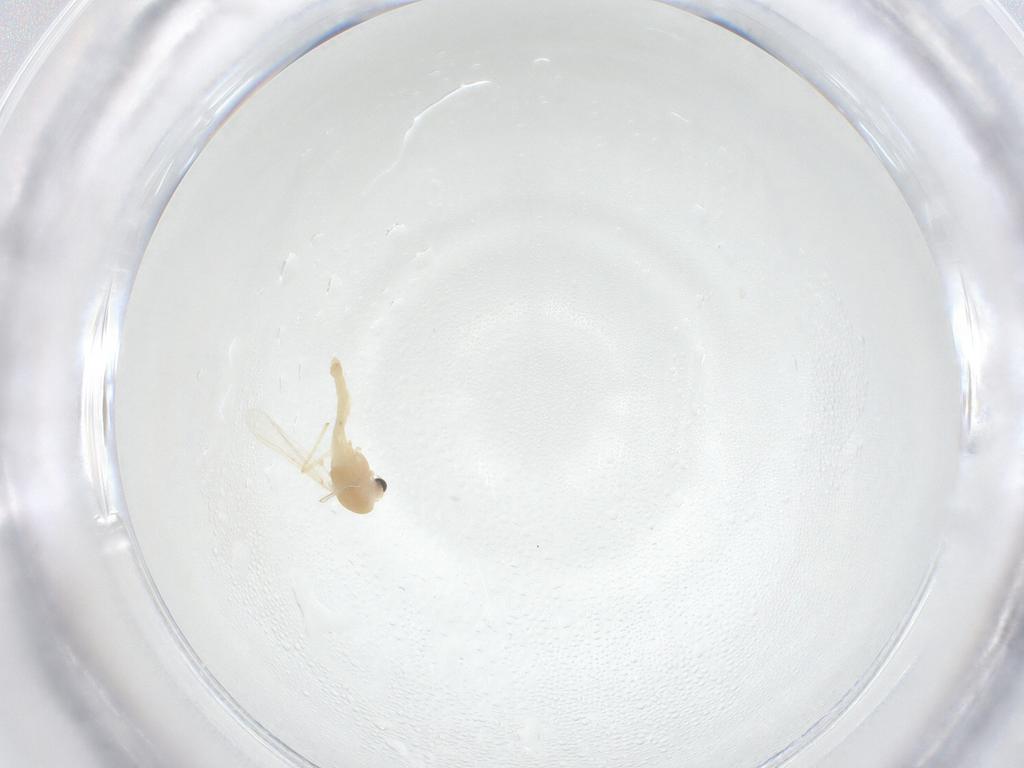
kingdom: Animalia
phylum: Arthropoda
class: Insecta
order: Diptera
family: Chironomidae
